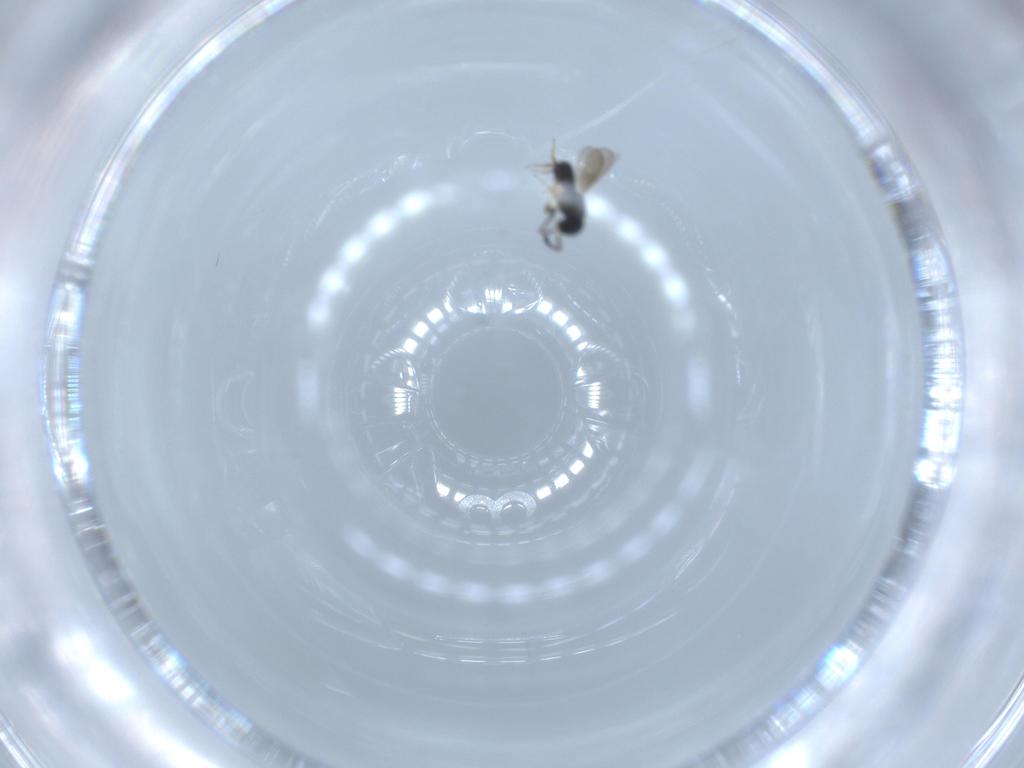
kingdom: Animalia
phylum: Arthropoda
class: Insecta
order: Hymenoptera
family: Scelionidae
